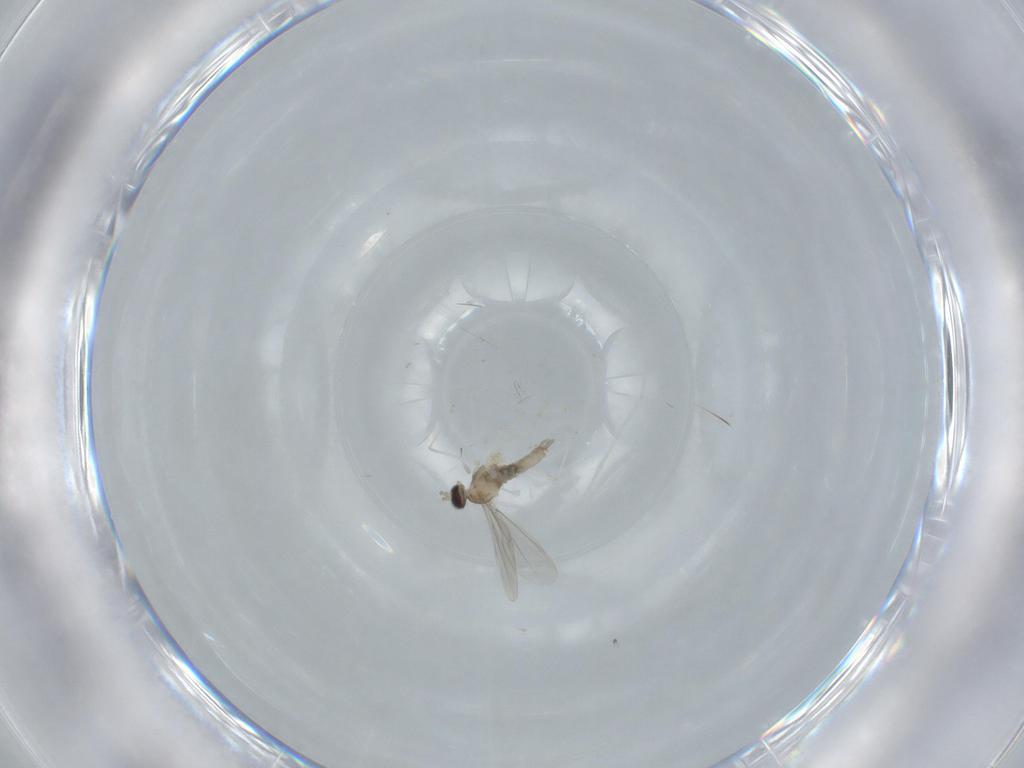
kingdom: Animalia
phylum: Arthropoda
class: Insecta
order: Diptera
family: Cecidomyiidae
